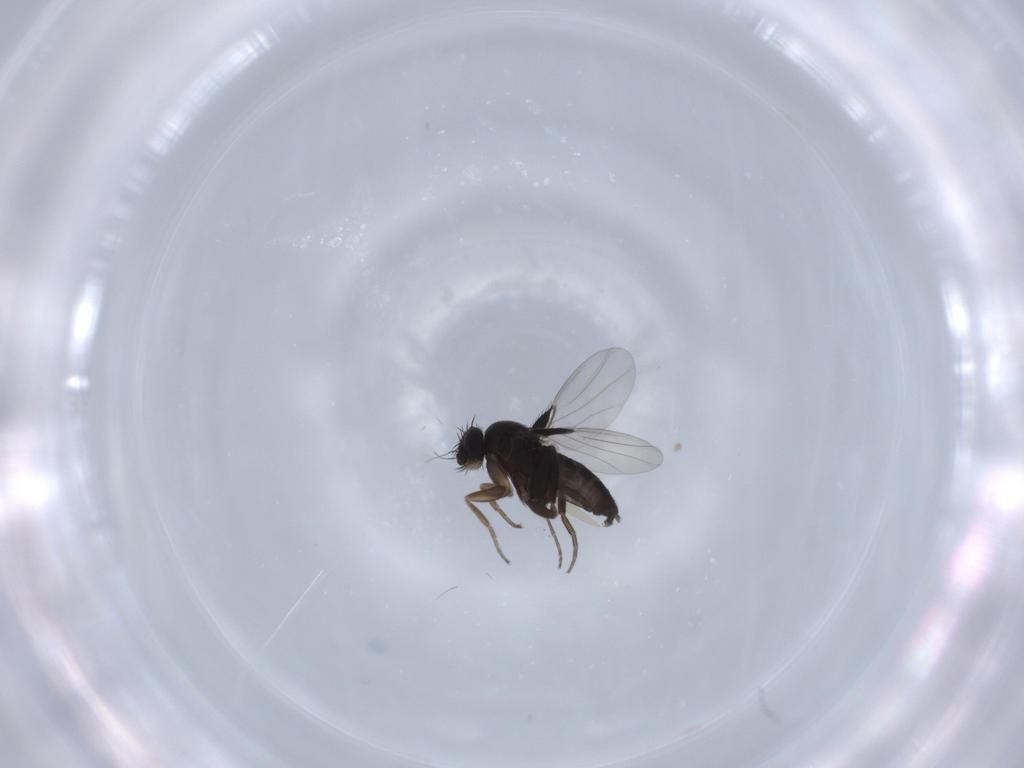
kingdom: Animalia
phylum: Arthropoda
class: Insecta
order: Diptera
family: Phoridae
